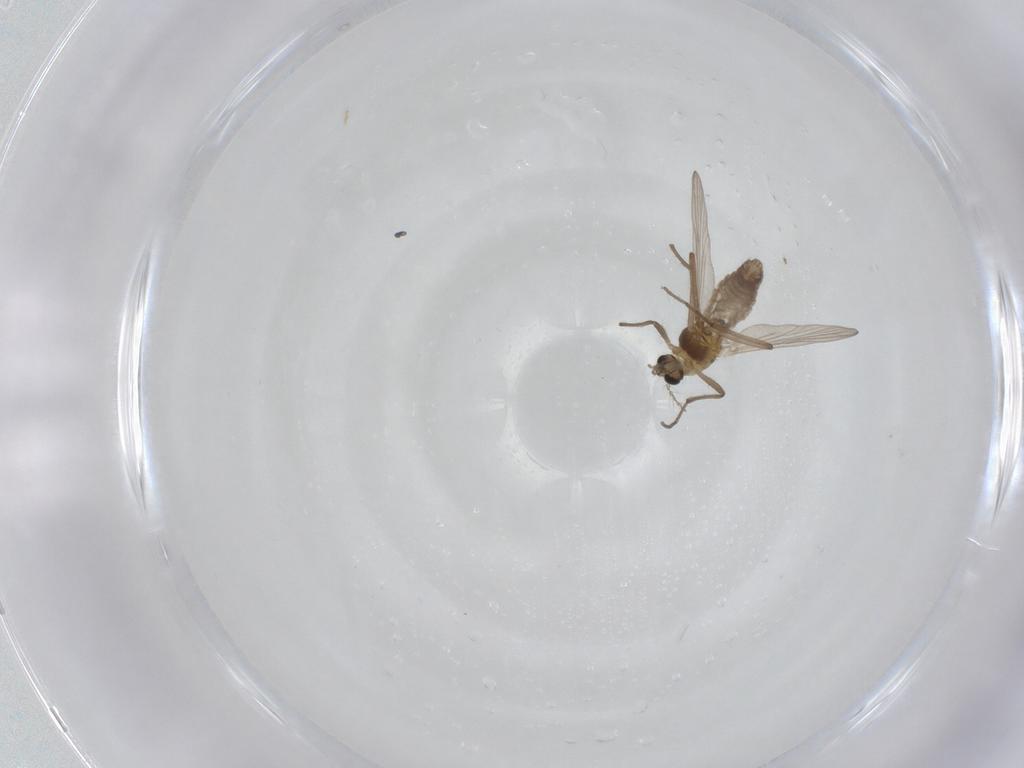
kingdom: Animalia
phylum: Arthropoda
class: Insecta
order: Diptera
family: Chironomidae
